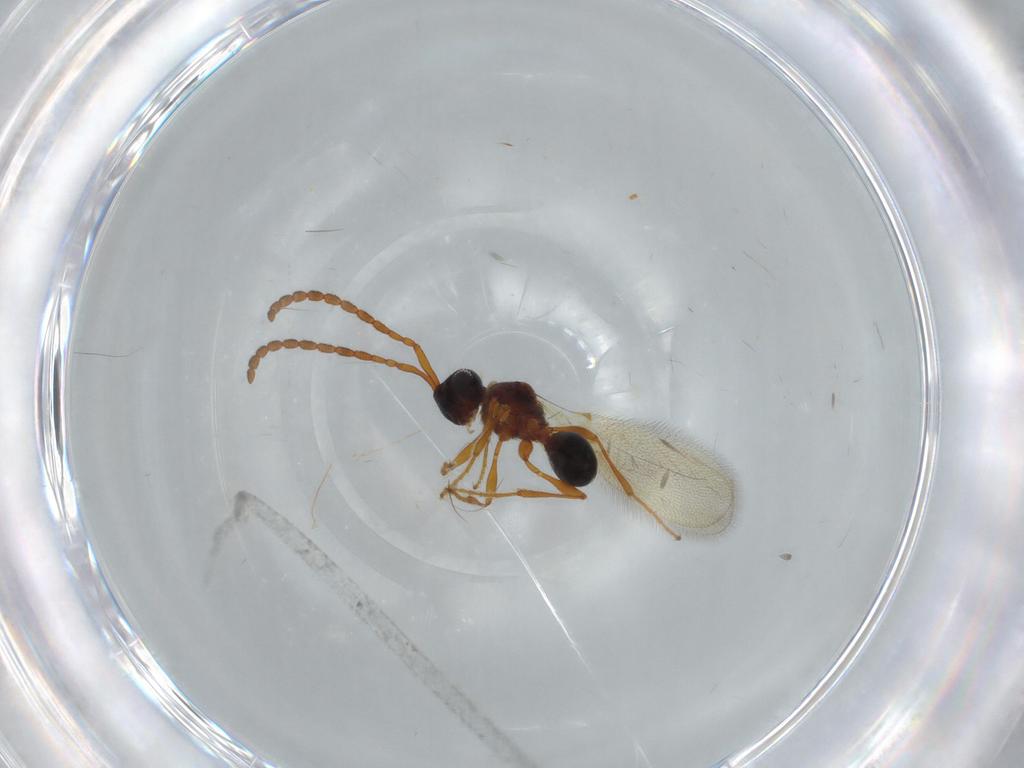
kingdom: Animalia
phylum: Arthropoda
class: Insecta
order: Hymenoptera
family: Diapriidae
